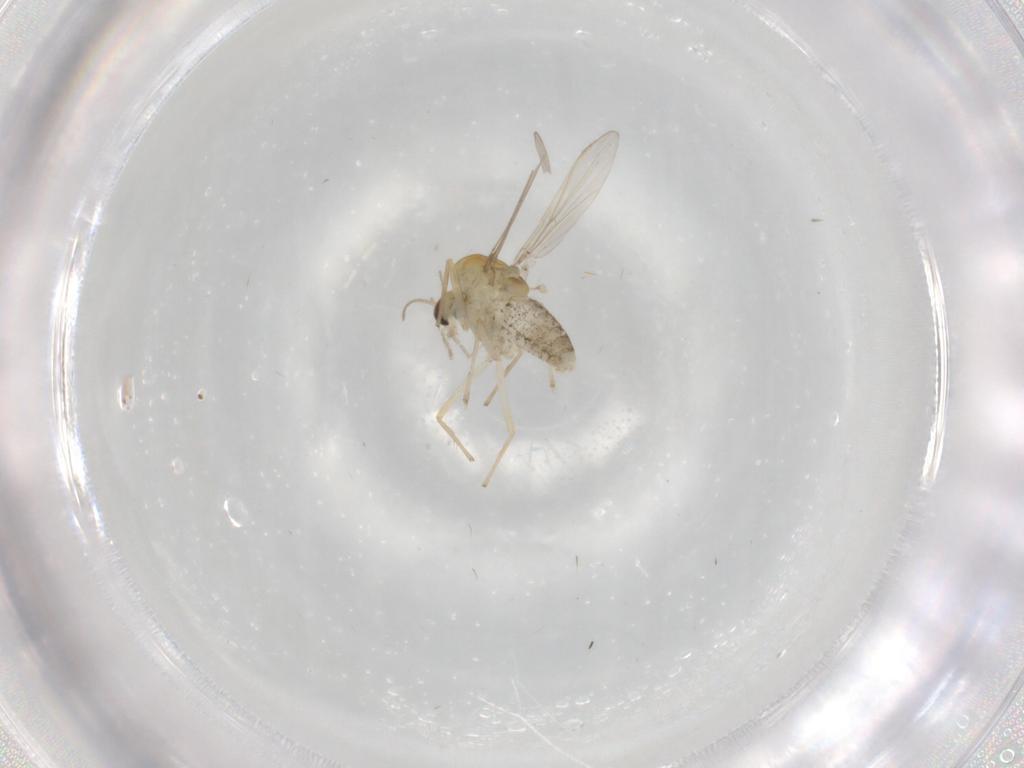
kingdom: Animalia
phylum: Arthropoda
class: Insecta
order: Diptera
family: Chironomidae
